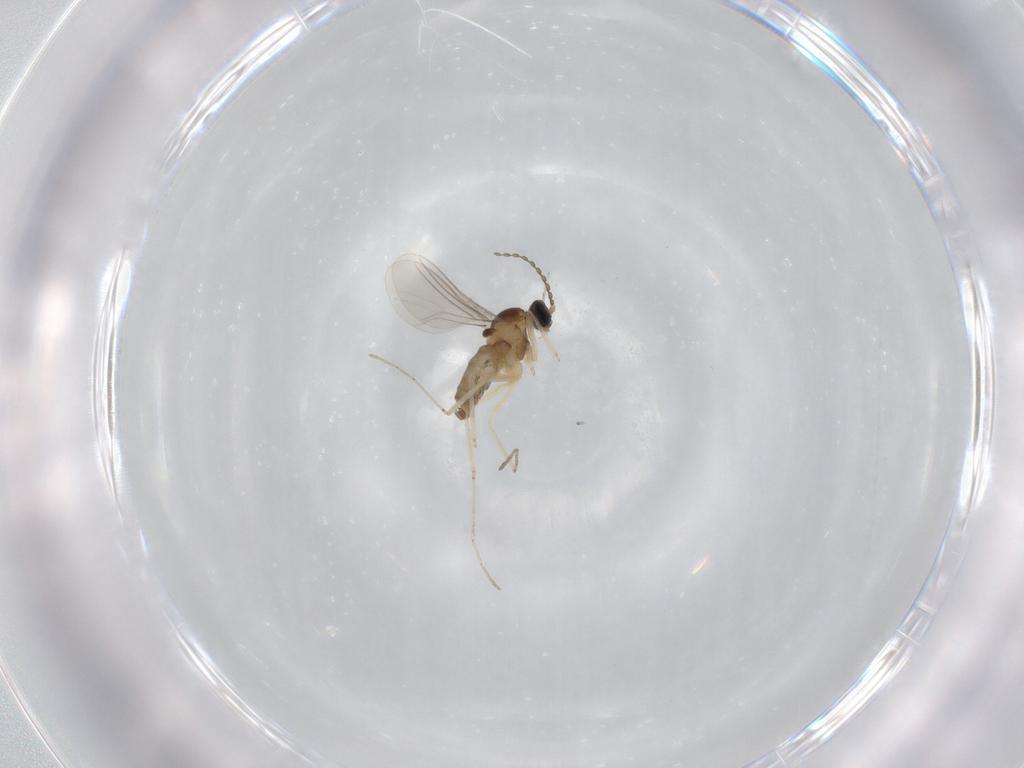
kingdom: Animalia
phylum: Arthropoda
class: Insecta
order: Diptera
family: Cecidomyiidae
